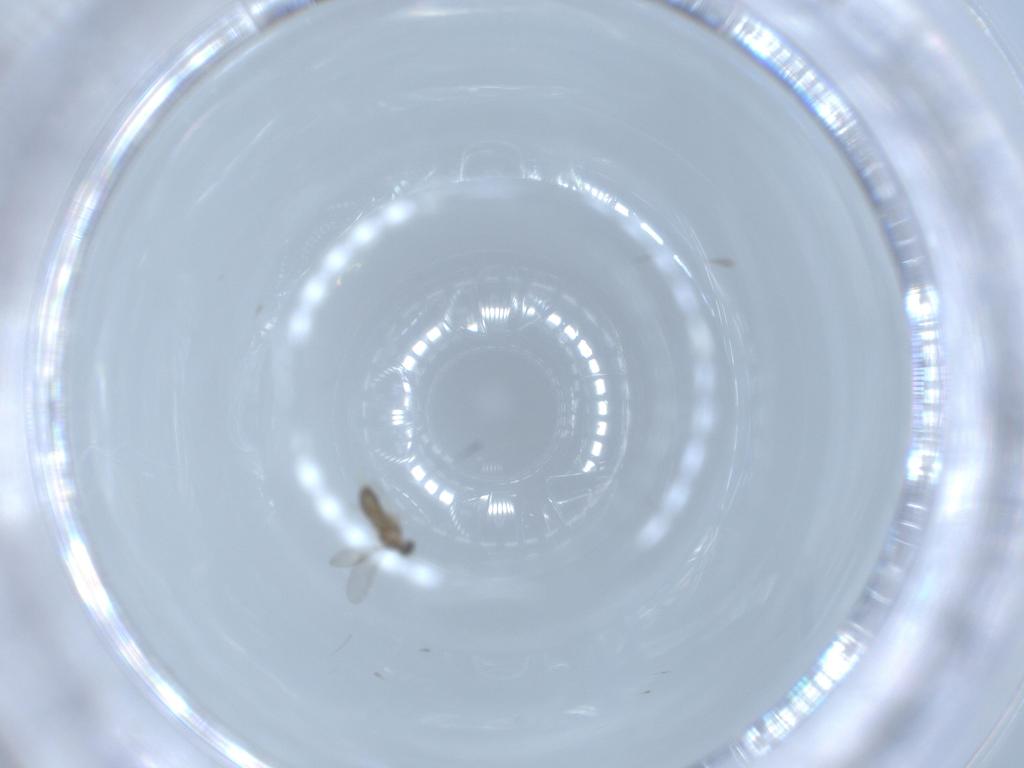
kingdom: Animalia
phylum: Arthropoda
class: Insecta
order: Diptera
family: Cecidomyiidae
